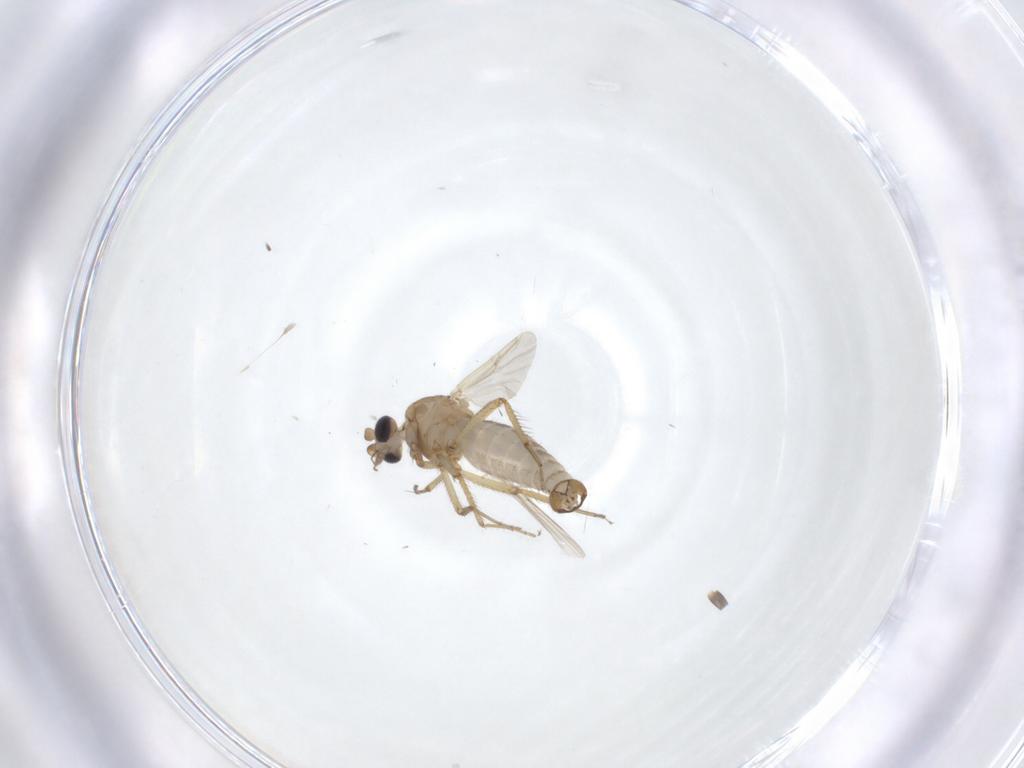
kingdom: Animalia
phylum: Arthropoda
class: Insecta
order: Diptera
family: Ceratopogonidae
